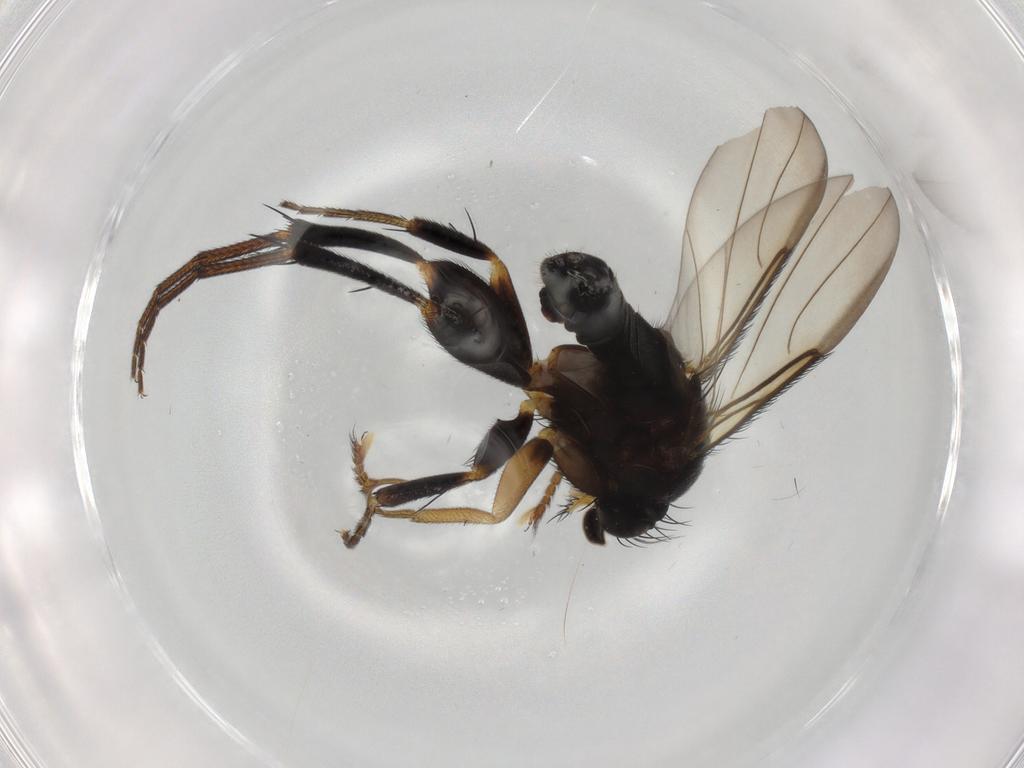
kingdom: Animalia
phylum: Arthropoda
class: Insecta
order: Diptera
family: Phoridae
